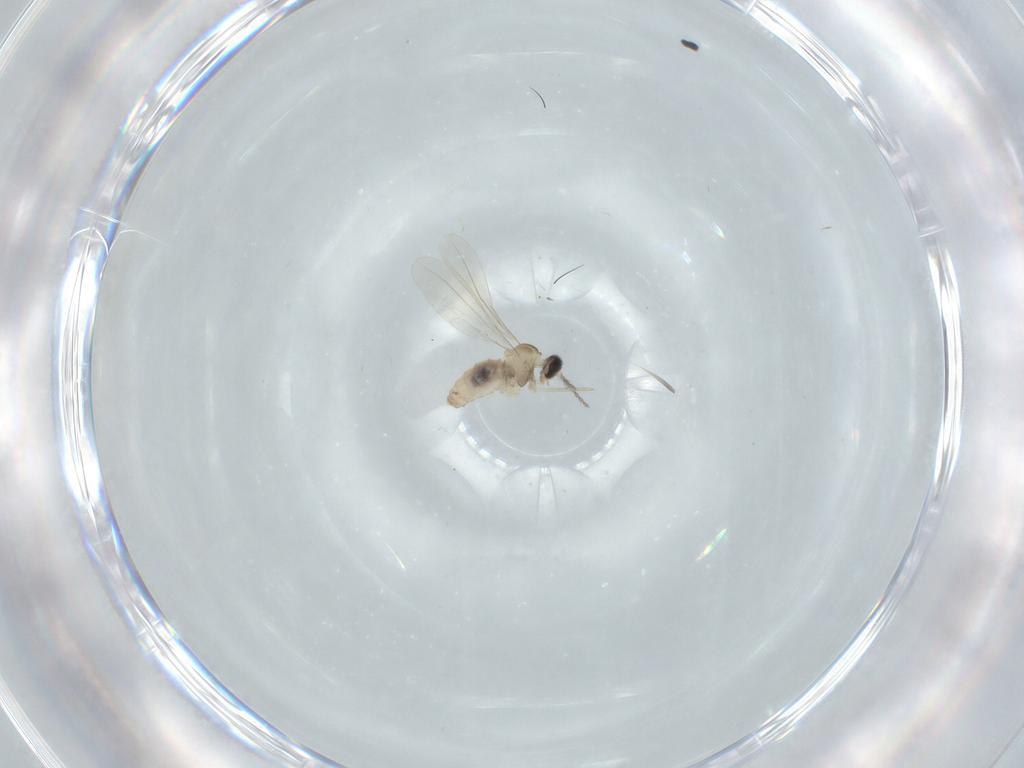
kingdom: Animalia
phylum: Arthropoda
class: Insecta
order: Diptera
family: Cecidomyiidae
